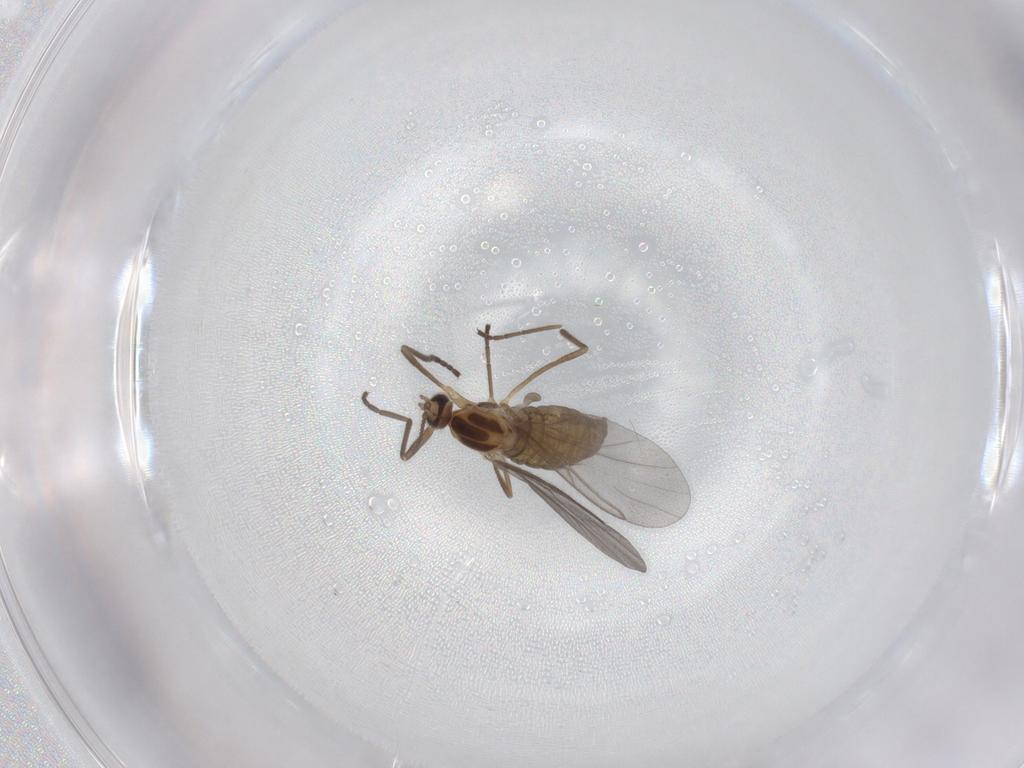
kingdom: Animalia
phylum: Arthropoda
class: Insecta
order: Diptera
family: Cecidomyiidae
